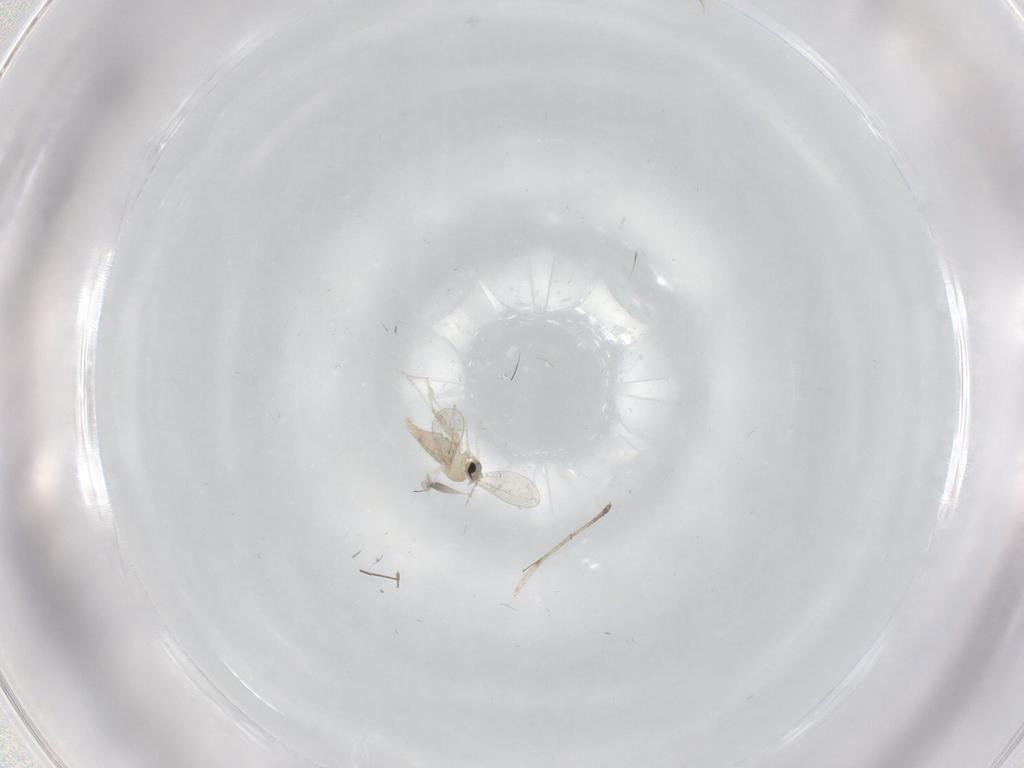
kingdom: Animalia
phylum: Arthropoda
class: Insecta
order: Diptera
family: Cecidomyiidae
